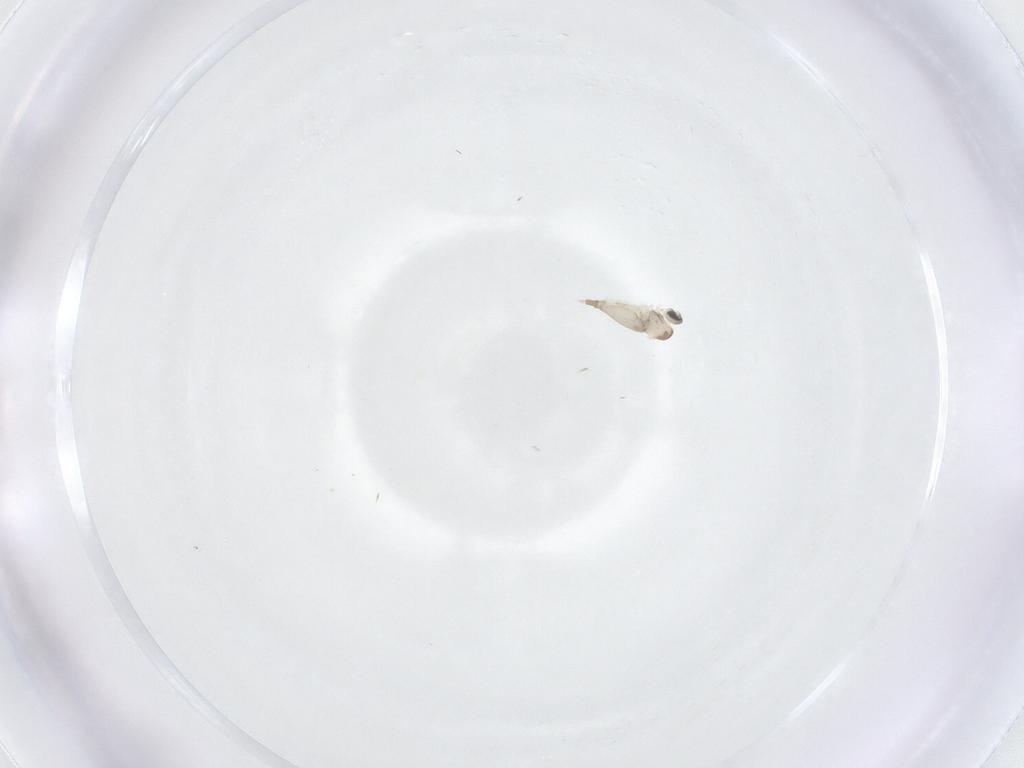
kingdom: Animalia
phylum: Arthropoda
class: Insecta
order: Diptera
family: Sciaridae
